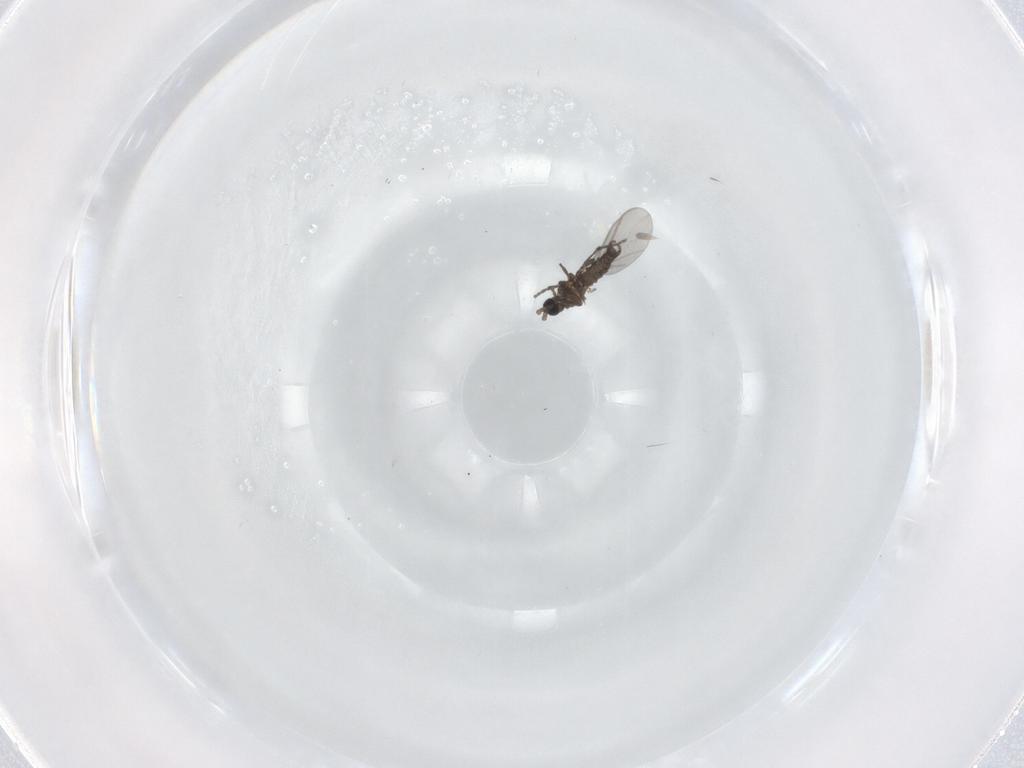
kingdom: Animalia
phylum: Arthropoda
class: Insecta
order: Diptera
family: Sciaridae
